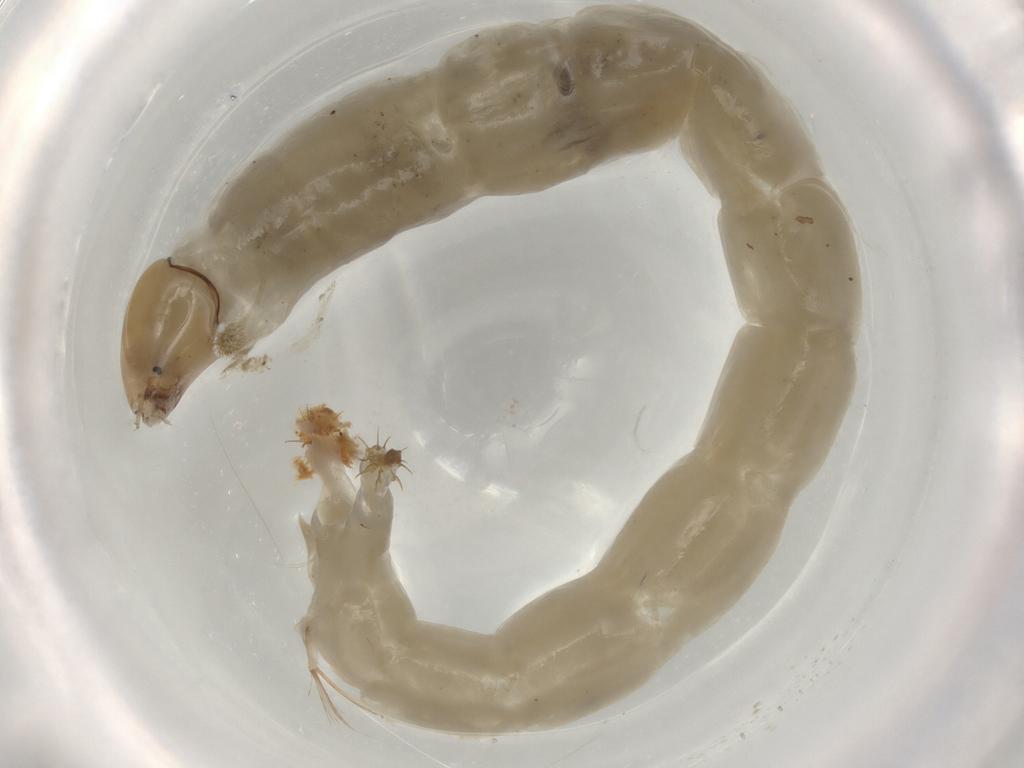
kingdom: Animalia
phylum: Arthropoda
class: Insecta
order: Diptera
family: Chironomidae
